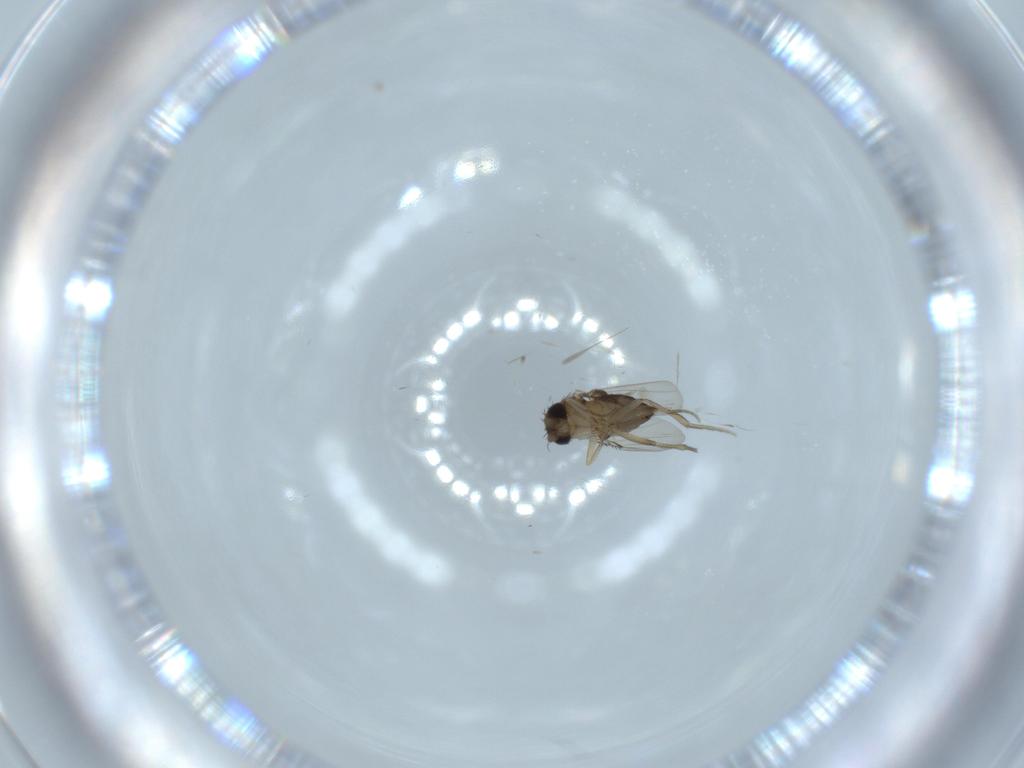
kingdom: Animalia
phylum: Arthropoda
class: Insecta
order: Diptera
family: Phoridae
